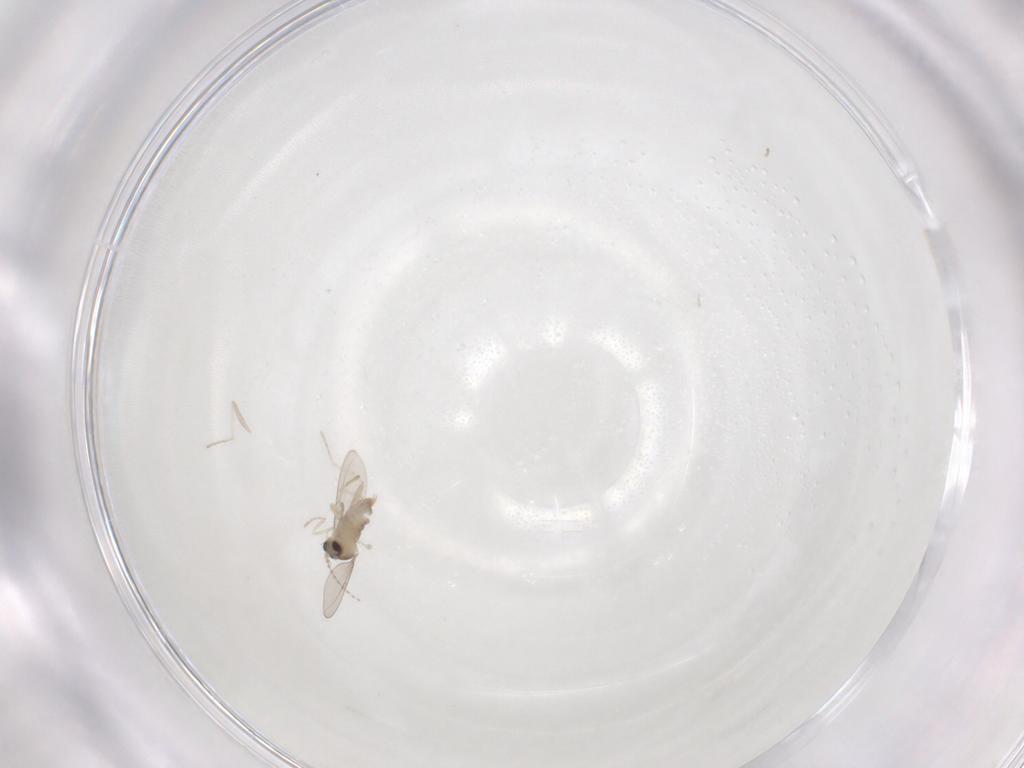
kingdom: Animalia
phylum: Arthropoda
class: Insecta
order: Diptera
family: Cecidomyiidae
